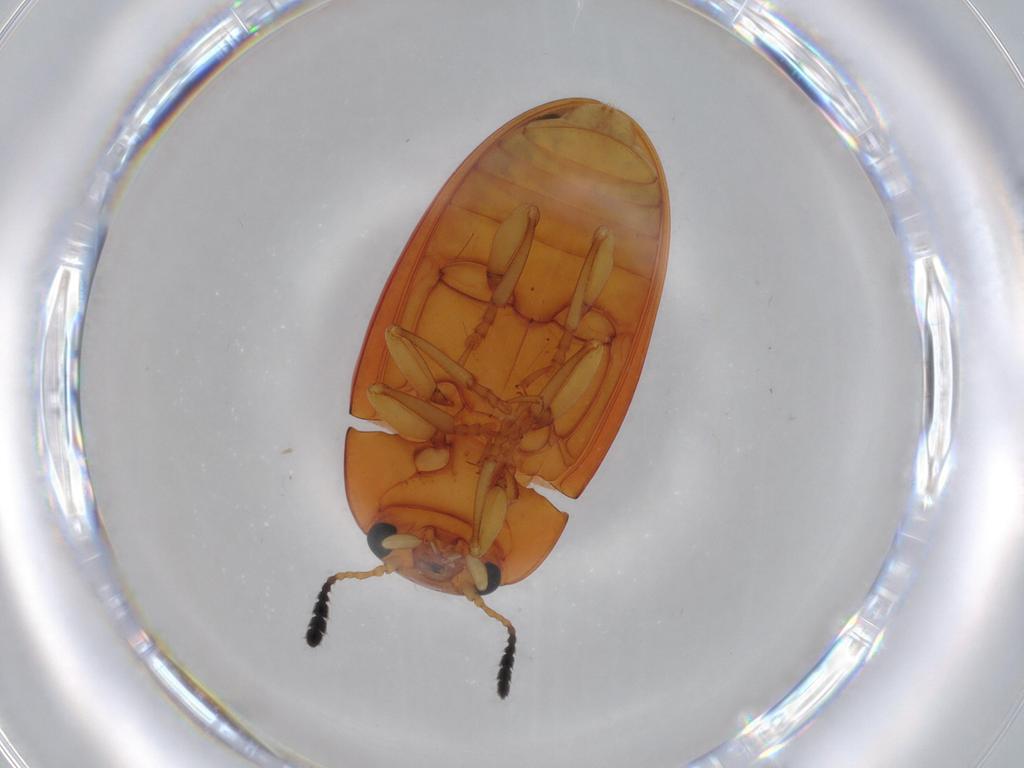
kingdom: Animalia
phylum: Arthropoda
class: Insecta
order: Coleoptera
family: Erotylidae
